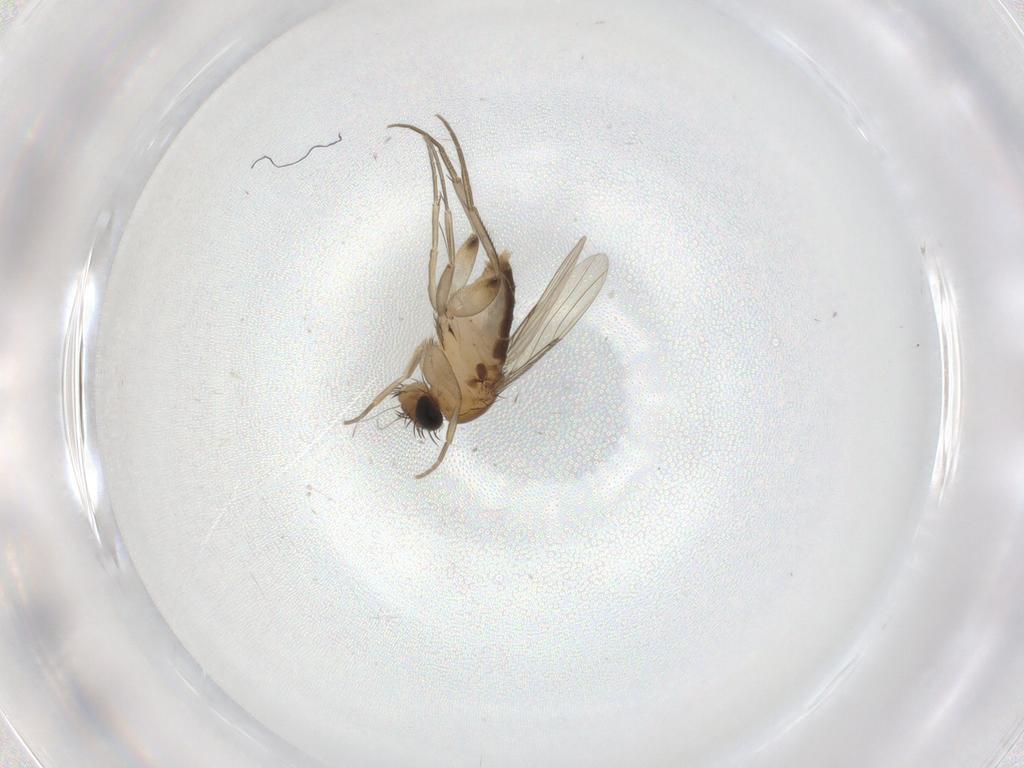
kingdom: Animalia
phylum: Arthropoda
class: Insecta
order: Diptera
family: Phoridae
